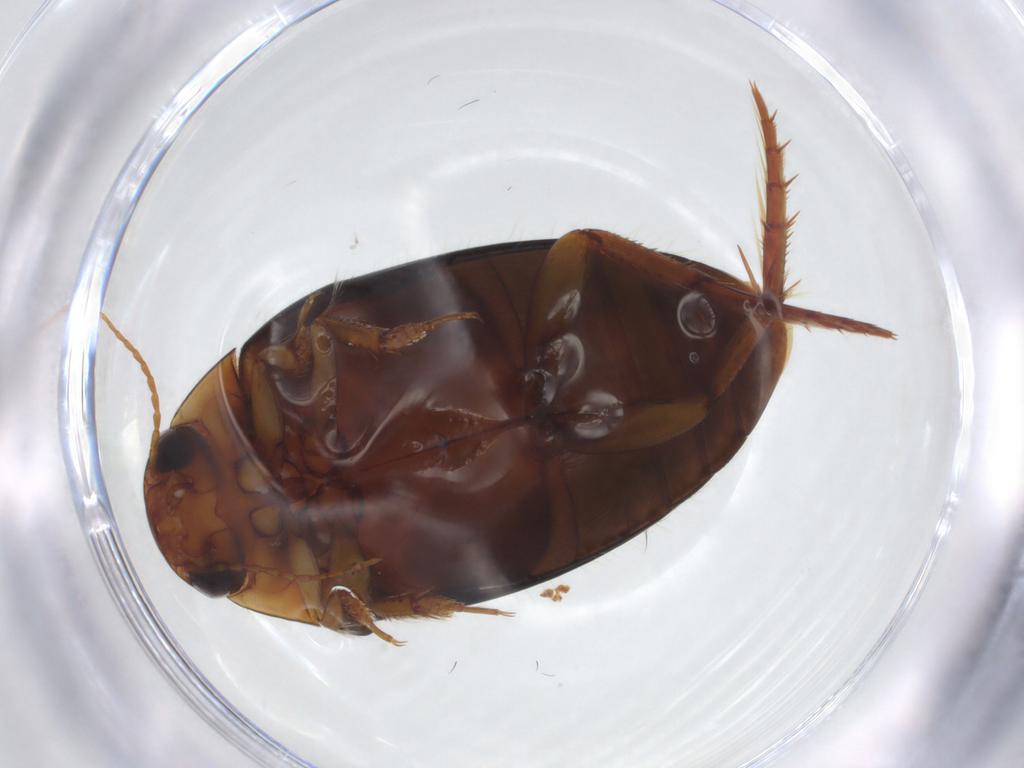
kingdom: Animalia
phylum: Arthropoda
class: Insecta
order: Coleoptera
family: Dytiscidae
